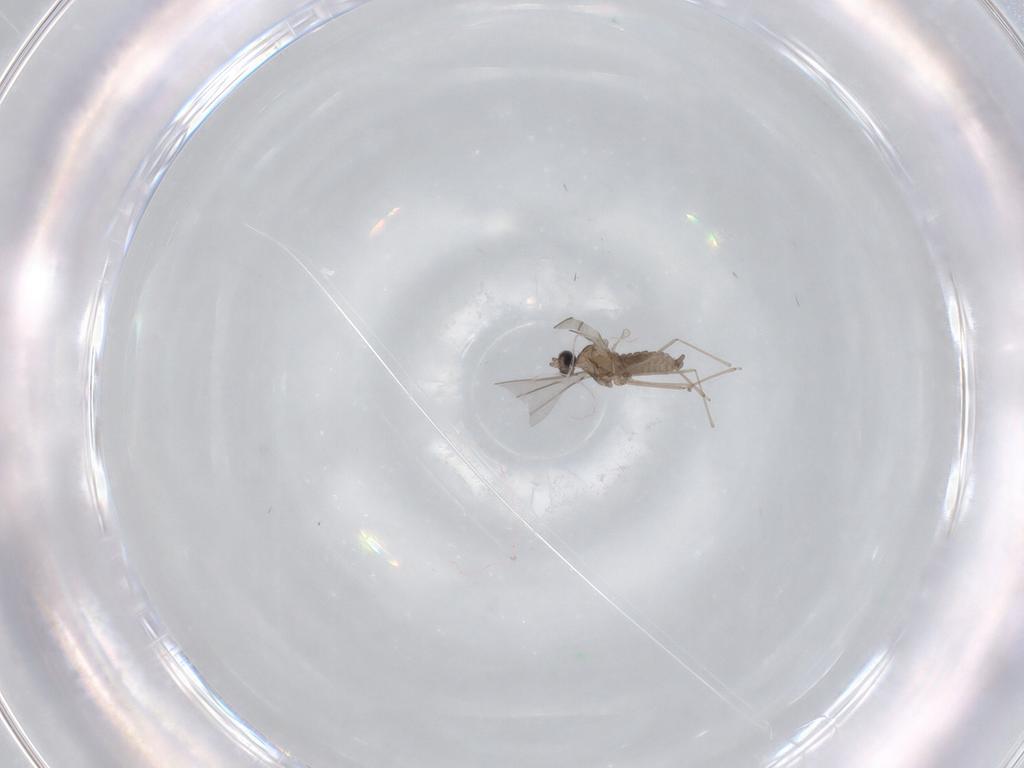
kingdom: Animalia
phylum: Arthropoda
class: Insecta
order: Diptera
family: Cecidomyiidae
